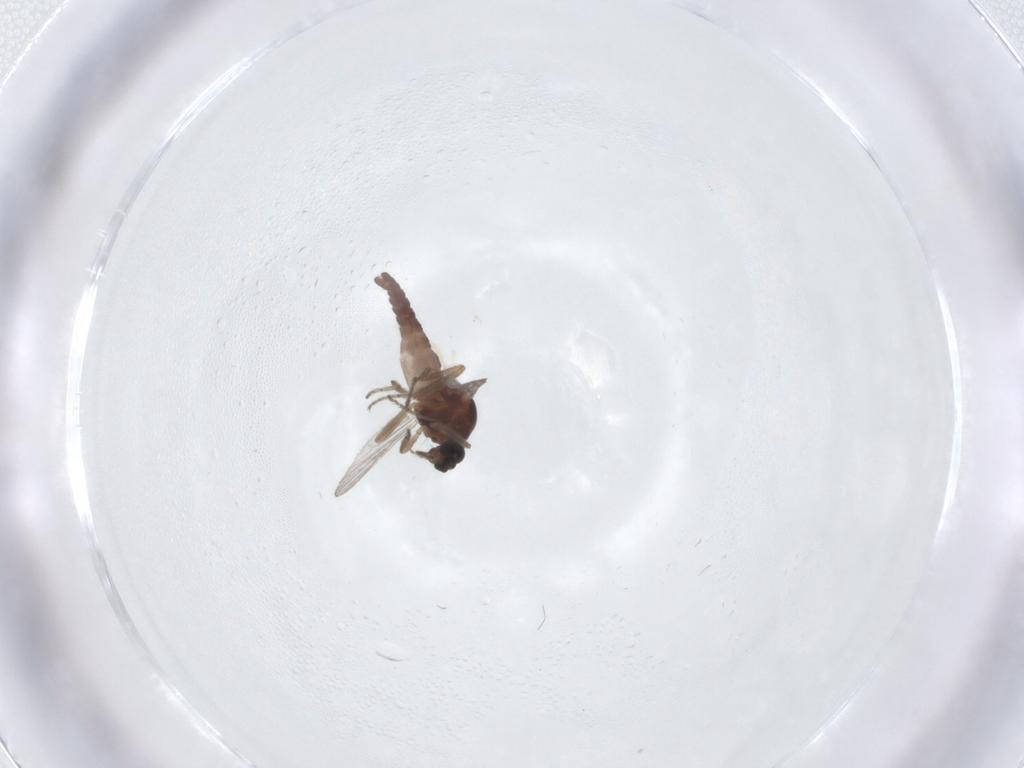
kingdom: Animalia
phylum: Arthropoda
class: Insecta
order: Diptera
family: Ceratopogonidae
